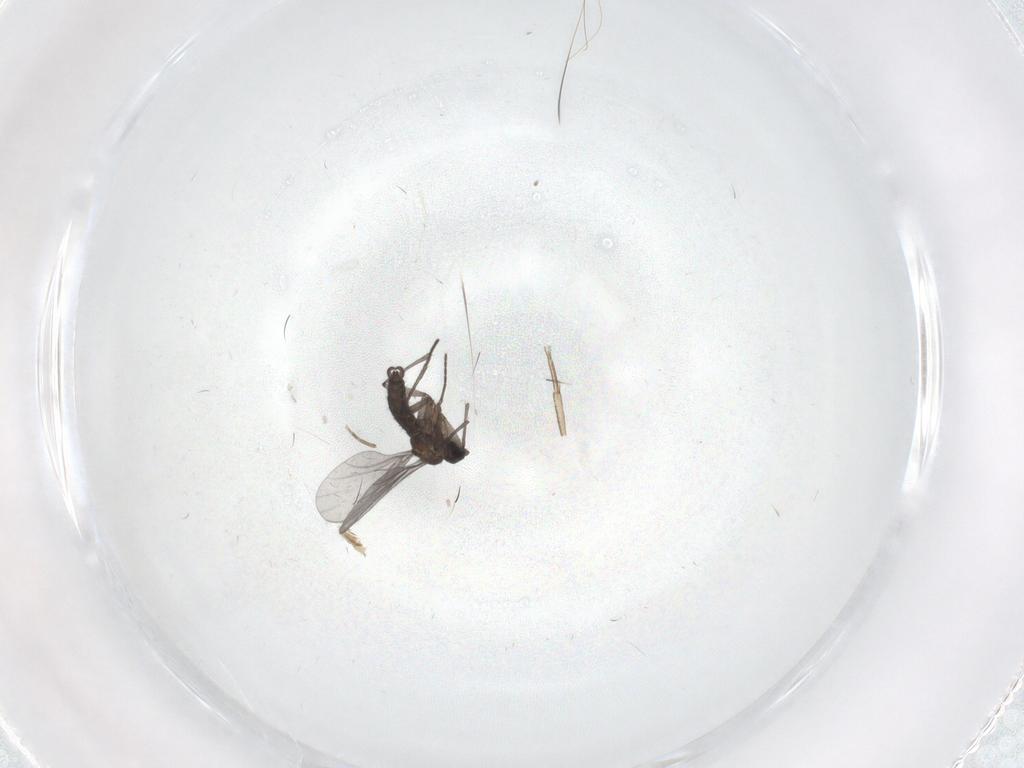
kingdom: Animalia
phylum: Arthropoda
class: Insecta
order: Diptera
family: Phoridae
